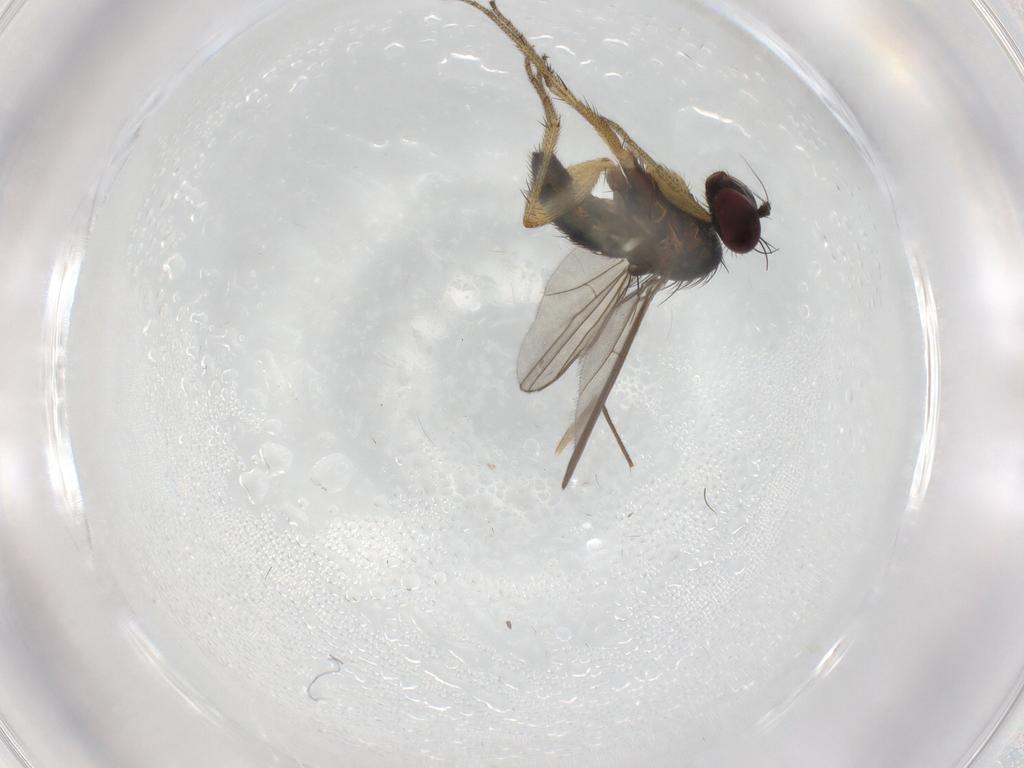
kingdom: Animalia
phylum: Arthropoda
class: Insecta
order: Diptera
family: Chironomidae
